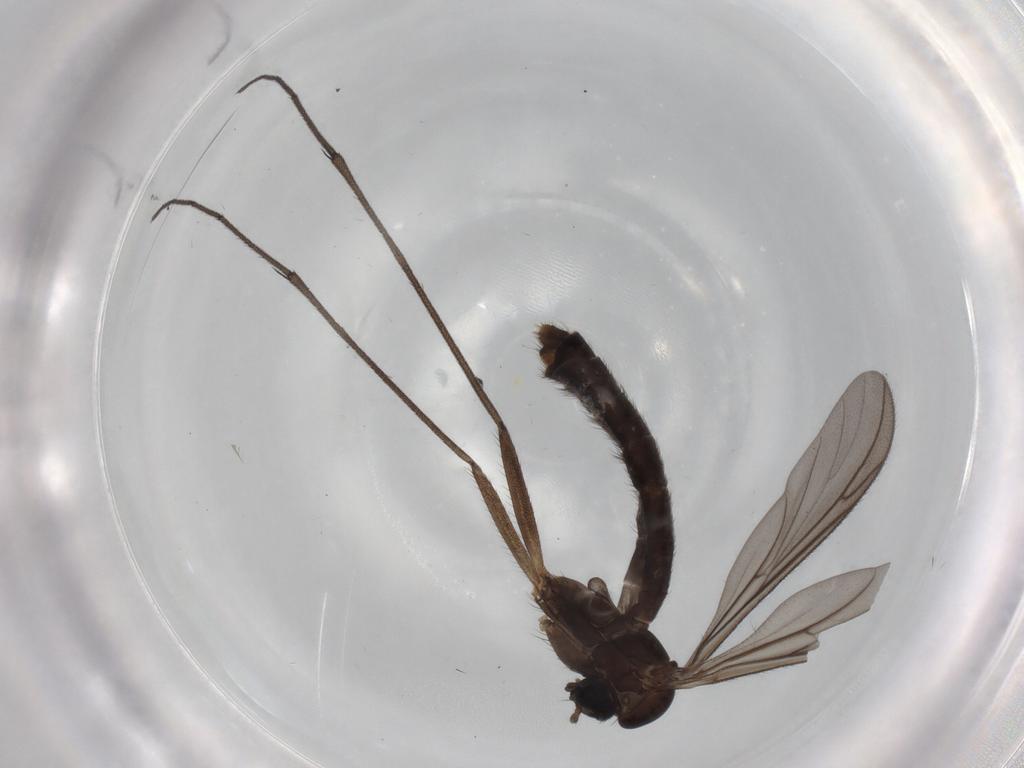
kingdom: Animalia
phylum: Arthropoda
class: Insecta
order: Diptera
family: Keroplatidae
